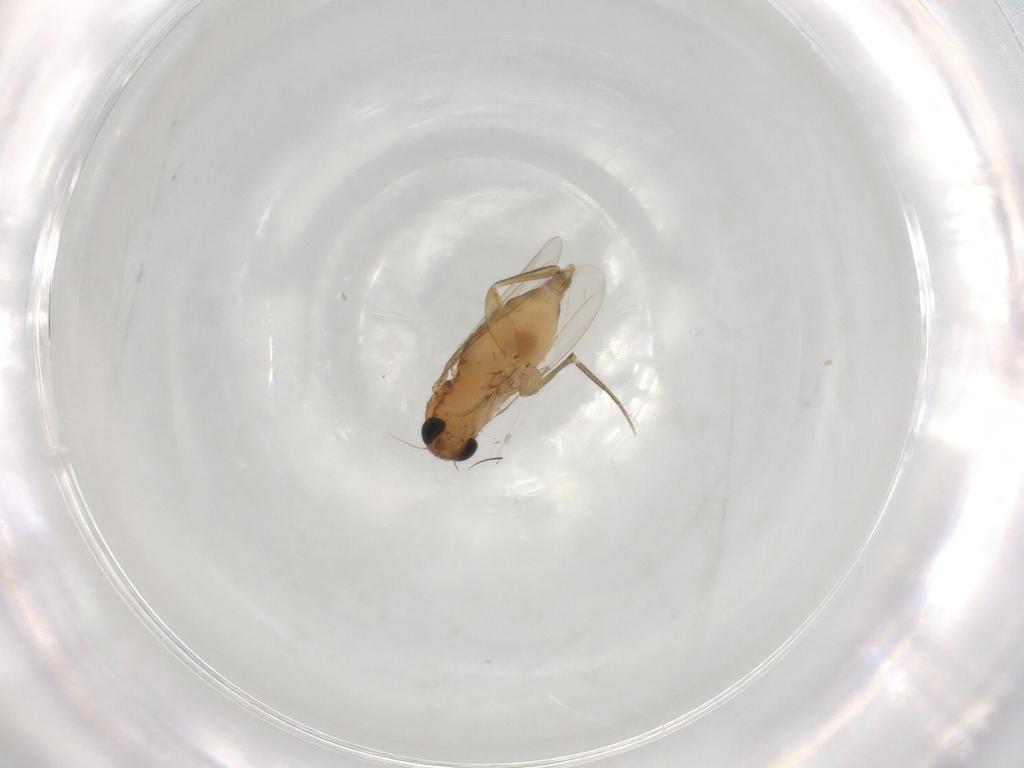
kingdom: Animalia
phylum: Arthropoda
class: Insecta
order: Diptera
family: Phoridae
